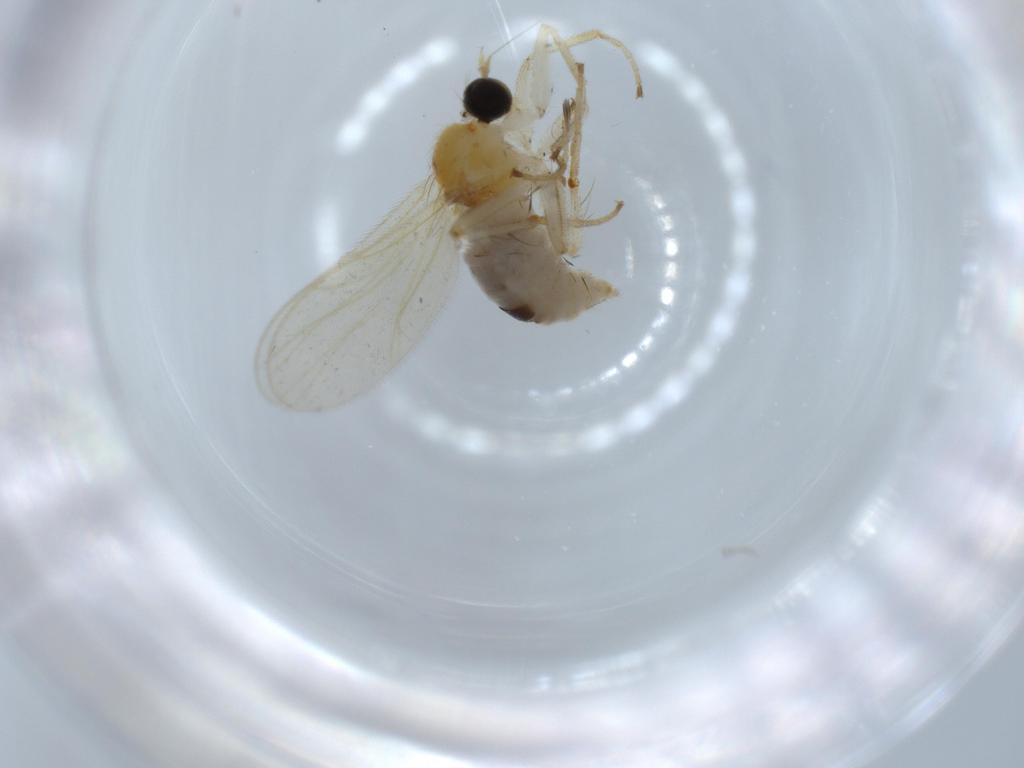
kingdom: Animalia
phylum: Arthropoda
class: Insecta
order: Diptera
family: Hybotidae
